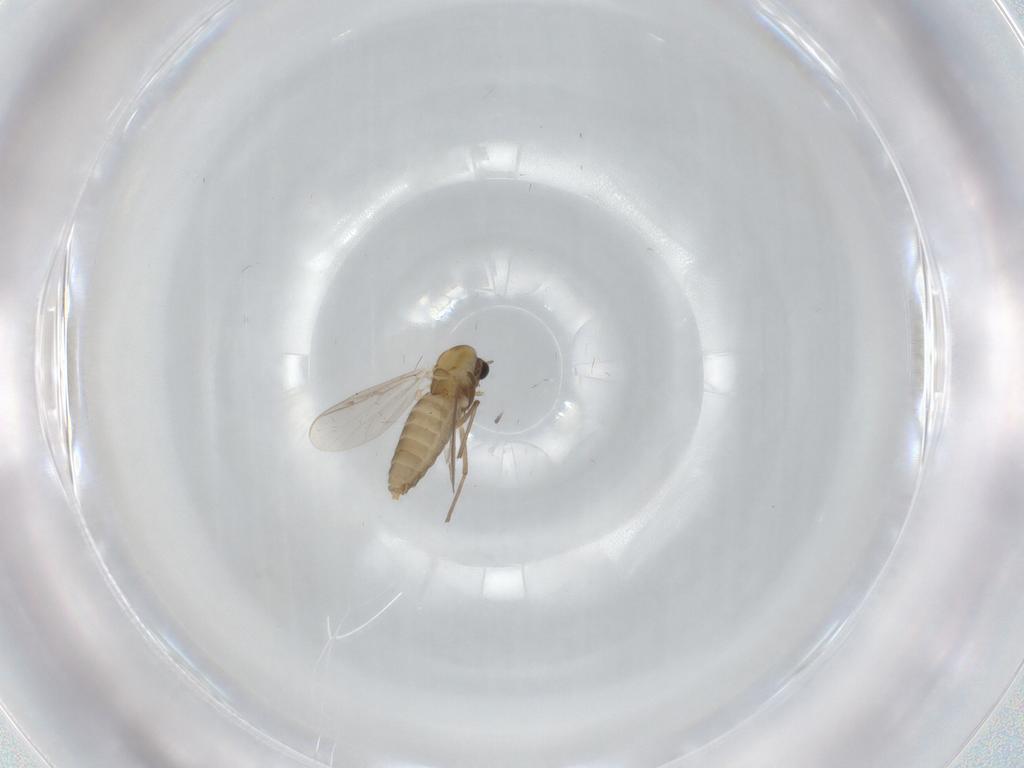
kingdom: Animalia
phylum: Arthropoda
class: Insecta
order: Diptera
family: Chironomidae
